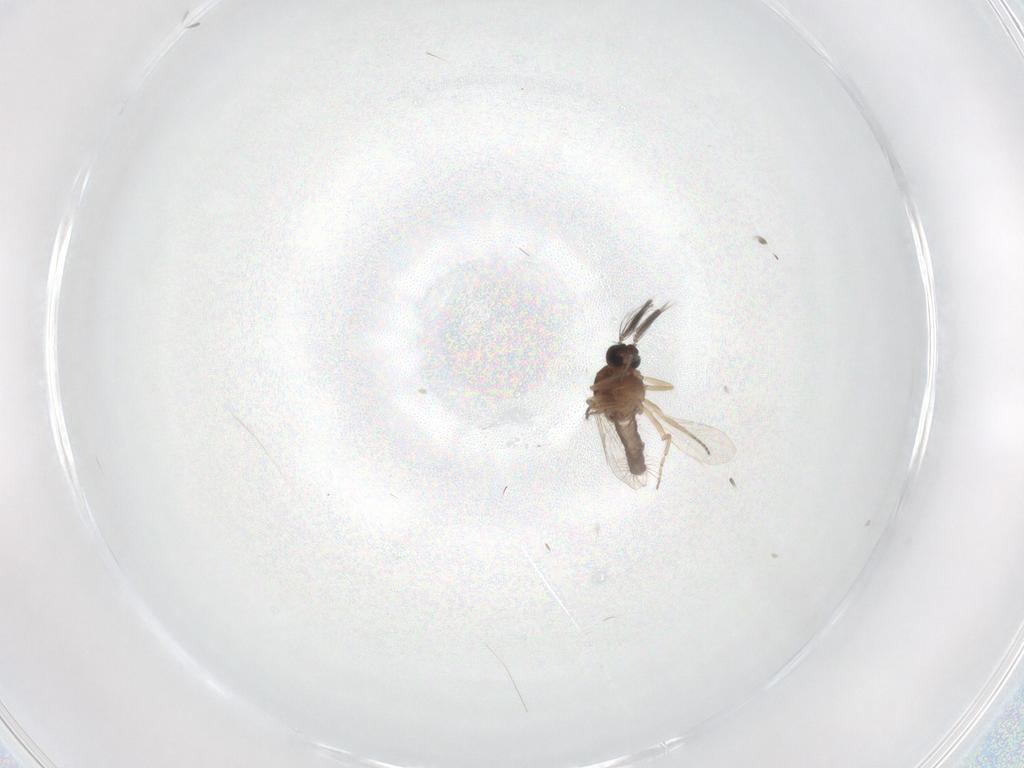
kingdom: Animalia
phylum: Arthropoda
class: Insecta
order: Diptera
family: Ceratopogonidae
